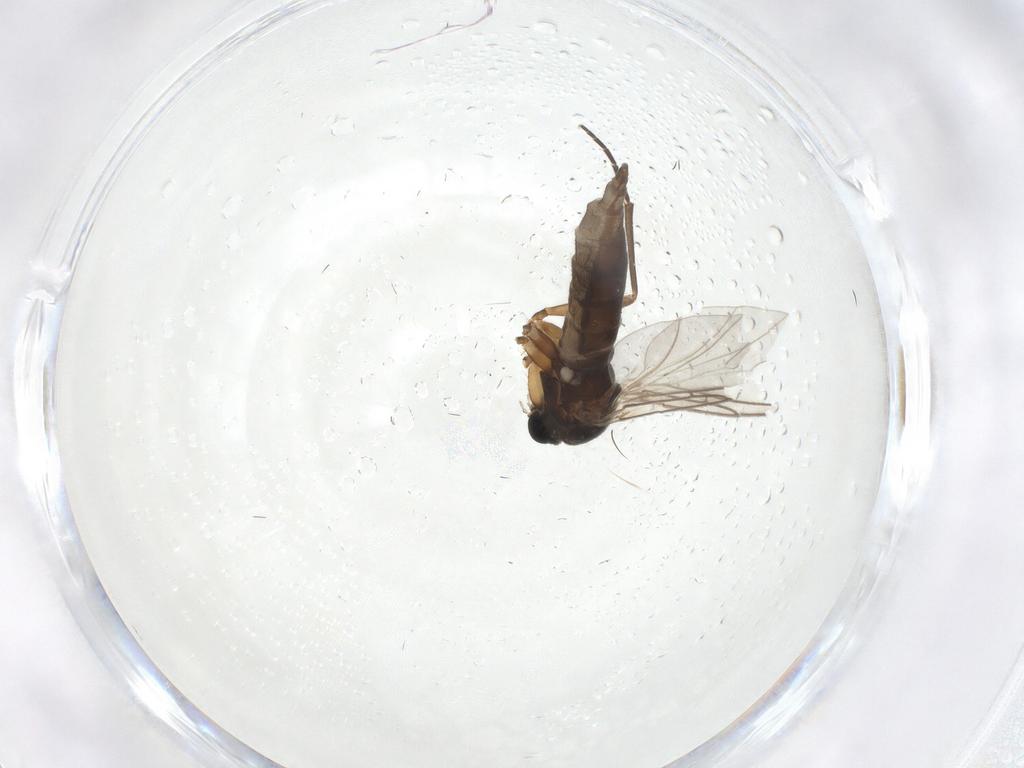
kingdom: Animalia
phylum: Arthropoda
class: Insecta
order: Diptera
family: Sciaridae
